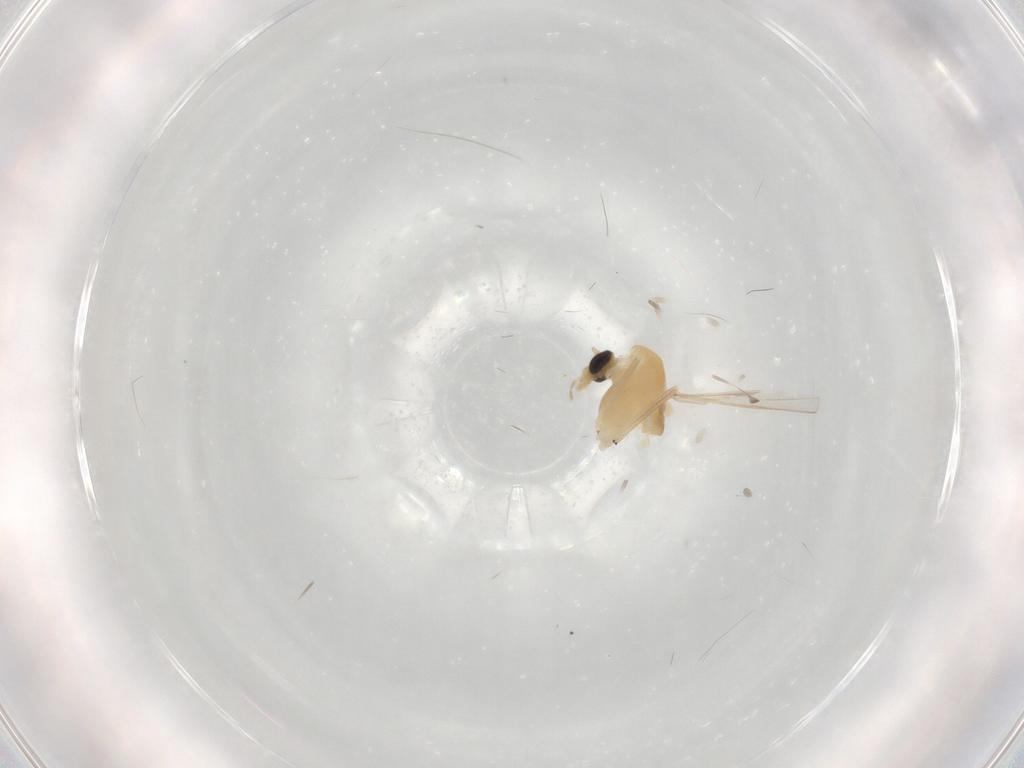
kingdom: Animalia
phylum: Arthropoda
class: Insecta
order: Diptera
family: Chironomidae
